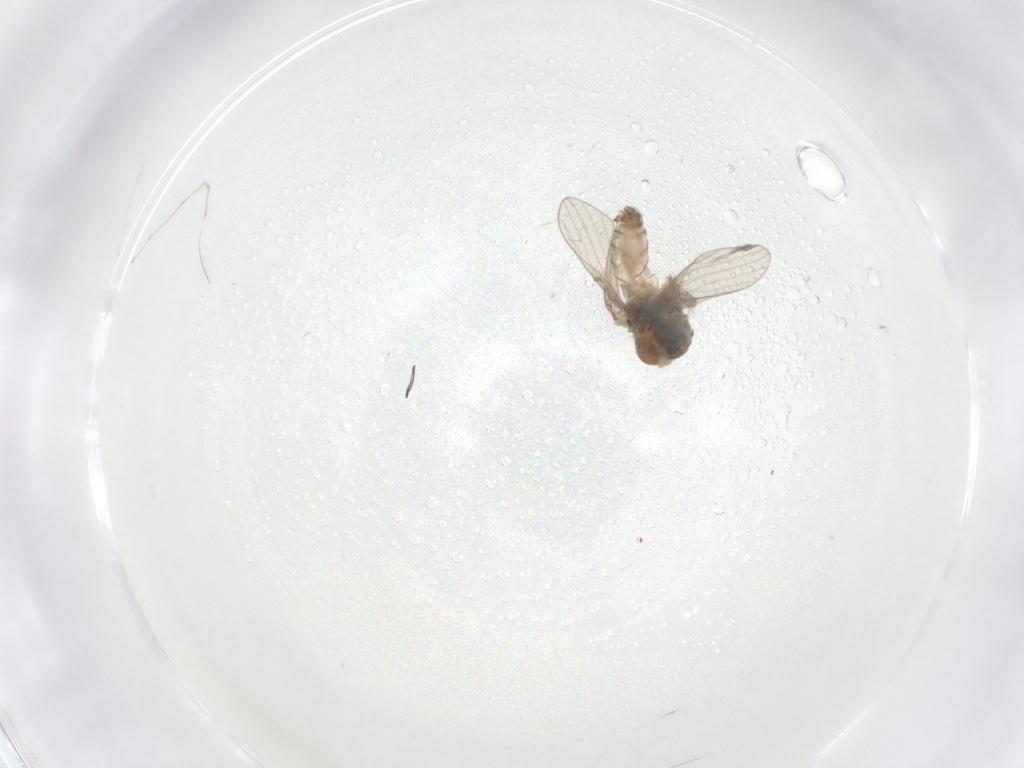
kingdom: Animalia
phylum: Arthropoda
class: Insecta
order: Diptera
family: Psychodidae
